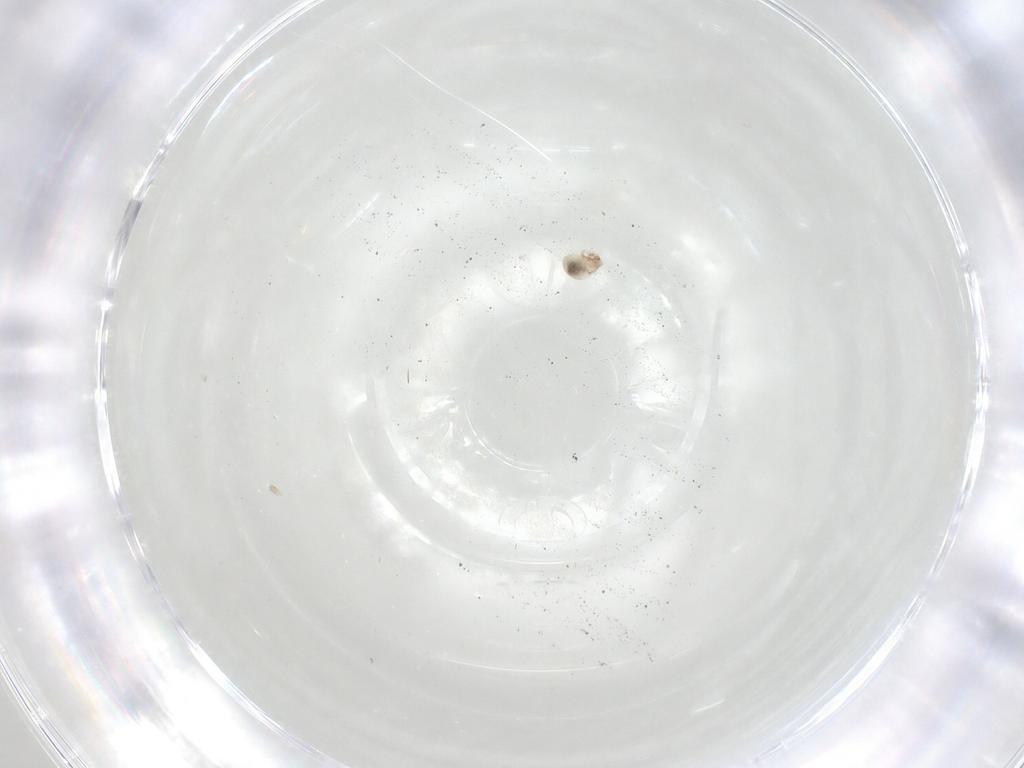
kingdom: Animalia
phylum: Arthropoda
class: Arachnida
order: Sarcoptiformes
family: Galumnidae
